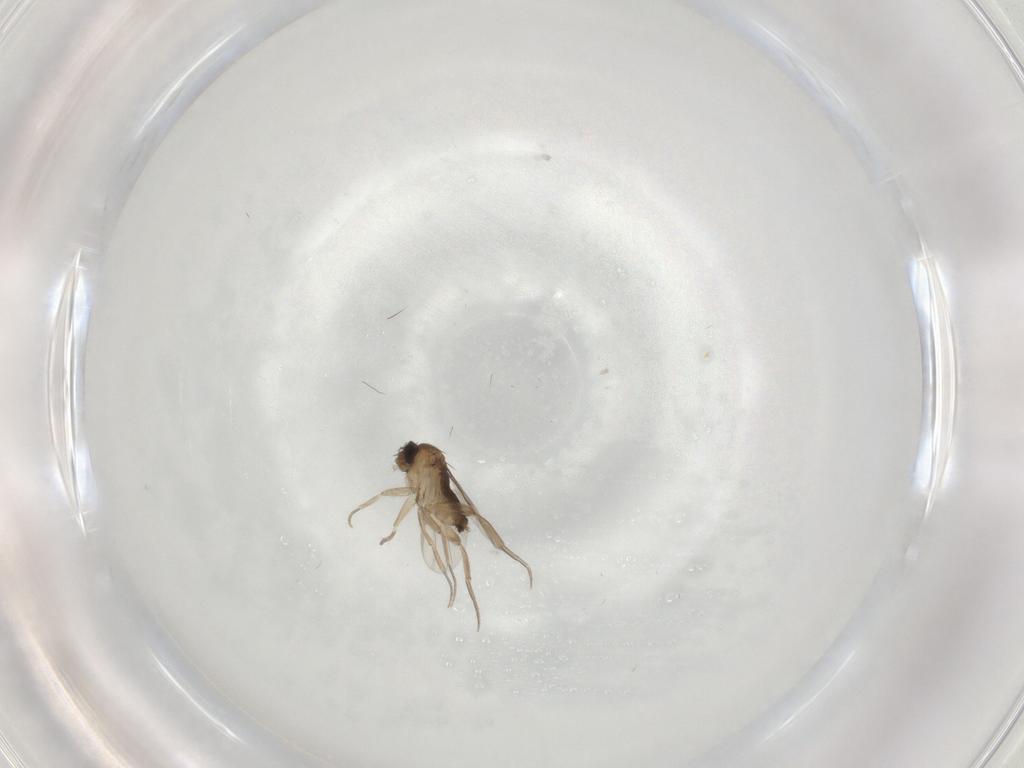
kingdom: Animalia
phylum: Arthropoda
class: Insecta
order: Diptera
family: Phoridae
